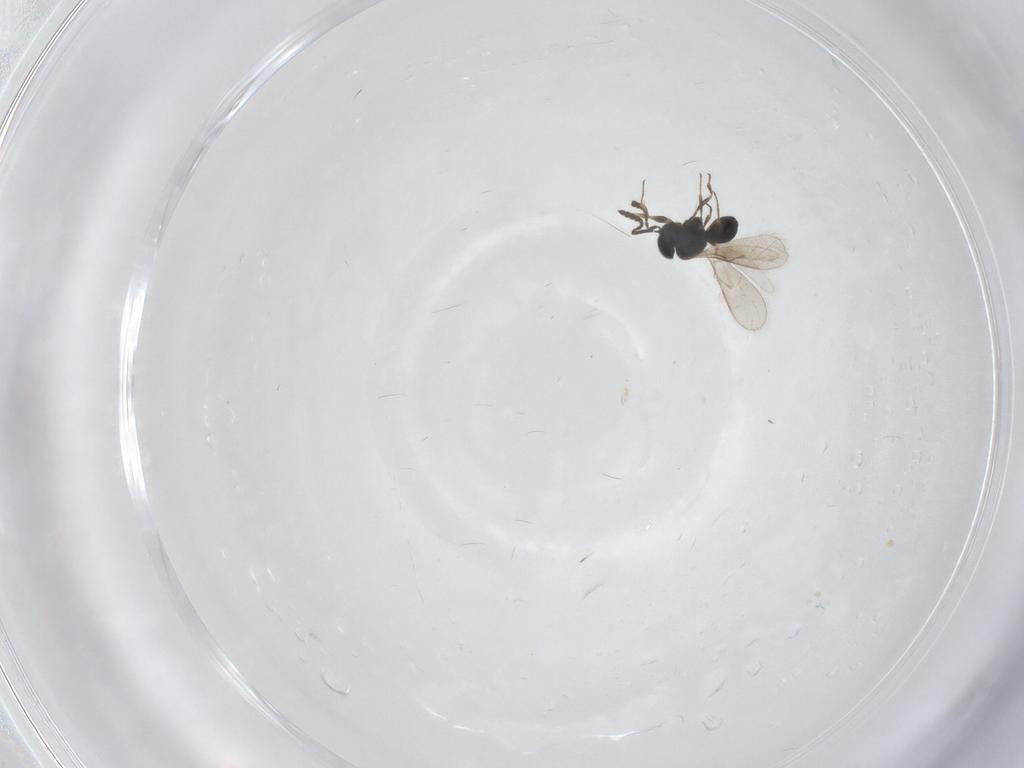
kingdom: Animalia
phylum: Arthropoda
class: Insecta
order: Hymenoptera
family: Scelionidae
